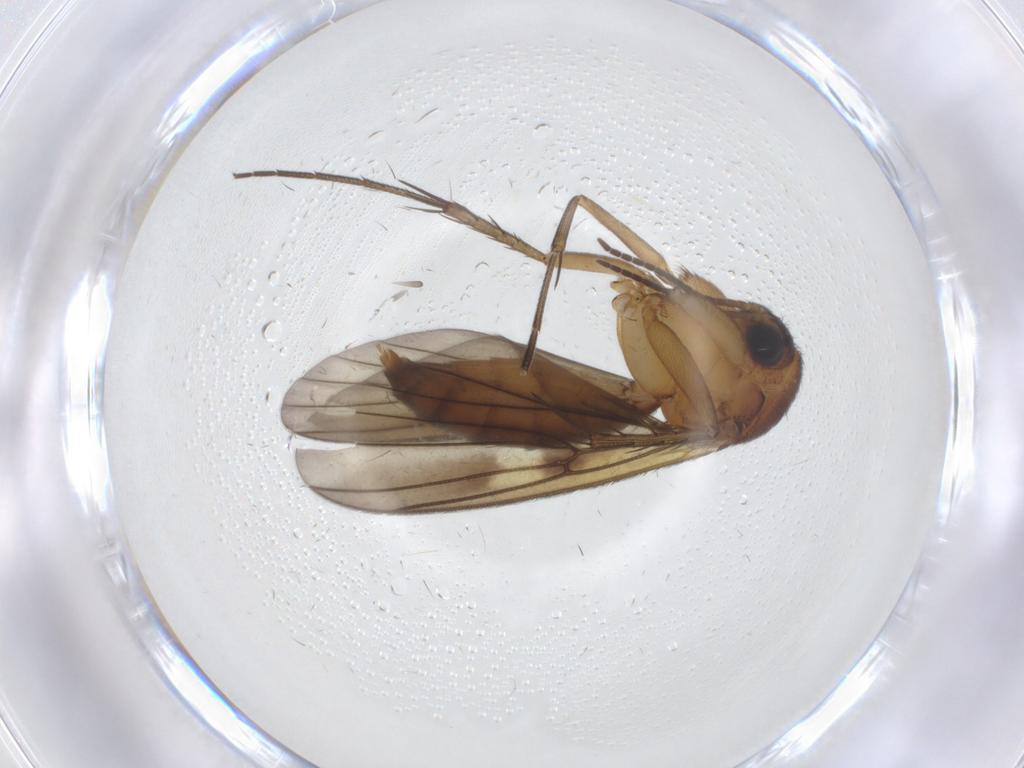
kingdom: Animalia
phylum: Arthropoda
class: Insecta
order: Diptera
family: Mycetophilidae
